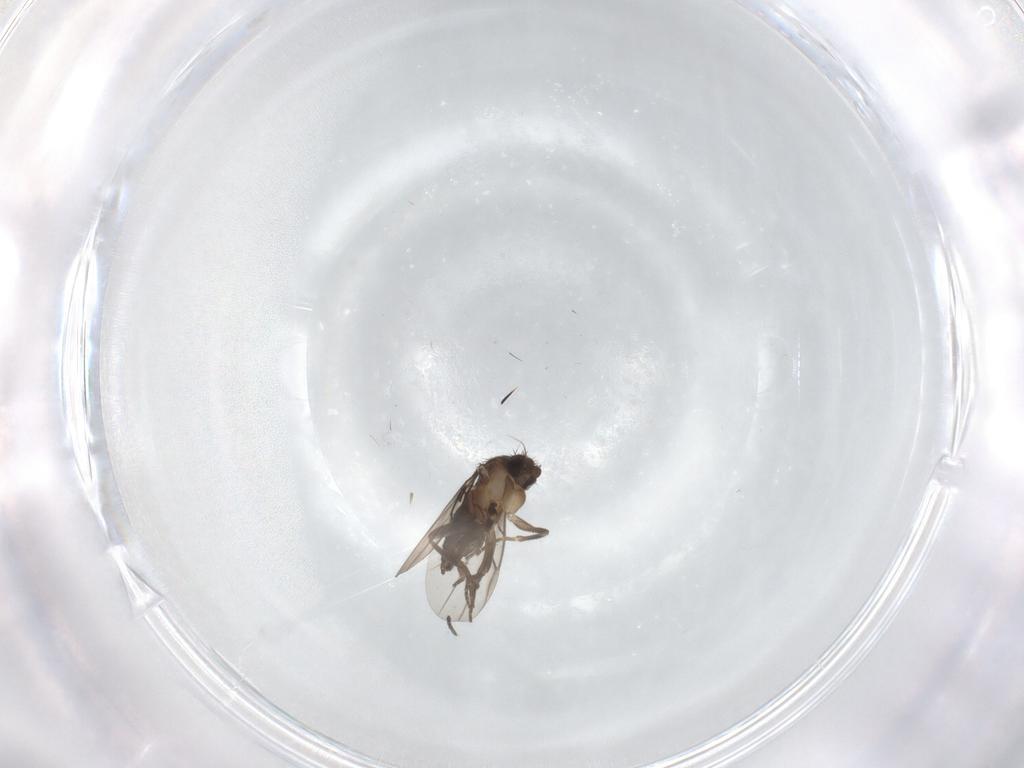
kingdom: Animalia
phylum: Arthropoda
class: Insecta
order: Diptera
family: Sciaridae
